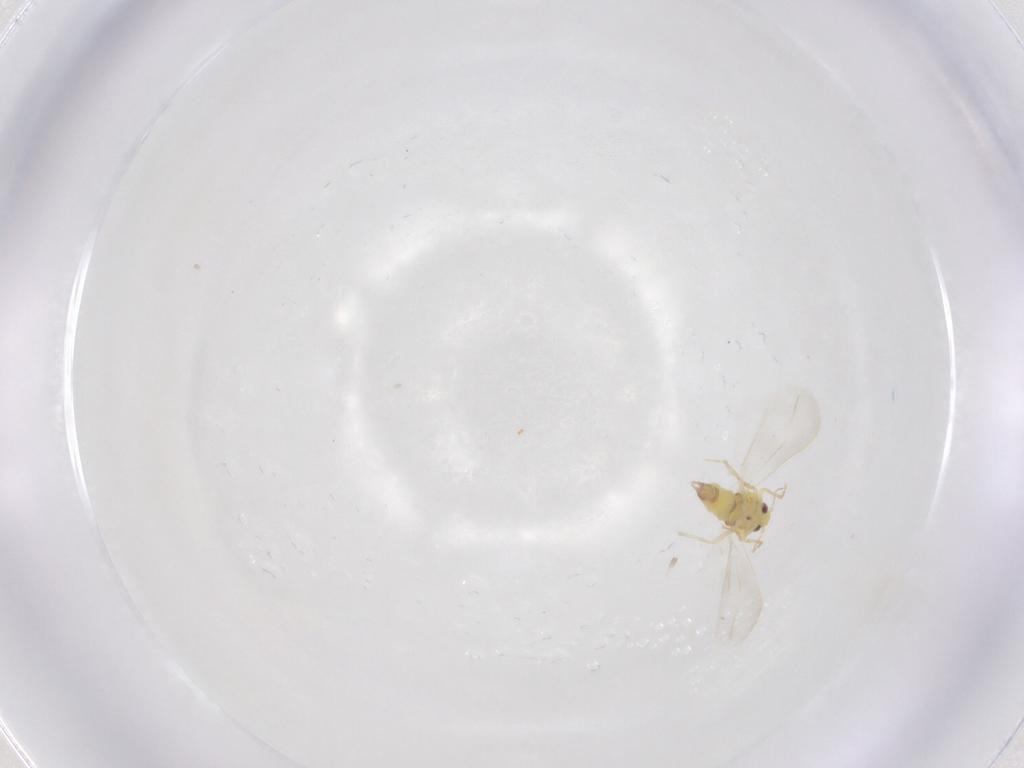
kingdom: Animalia
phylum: Arthropoda
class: Insecta
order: Hemiptera
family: Aleyrodidae
